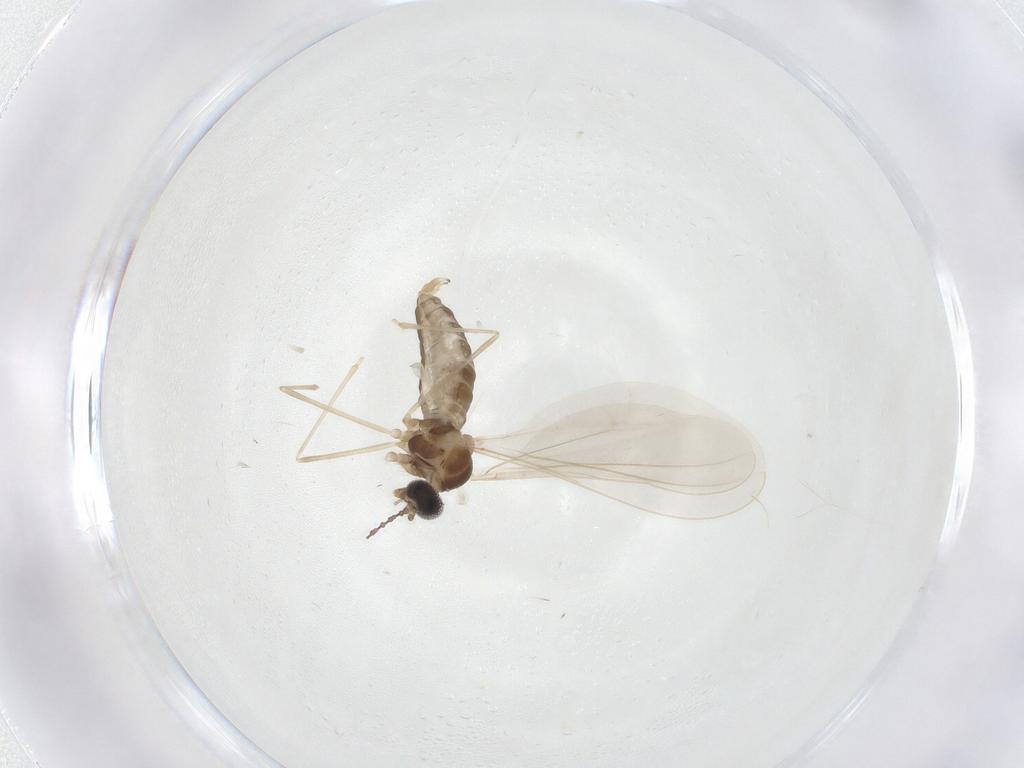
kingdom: Animalia
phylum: Arthropoda
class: Insecta
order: Diptera
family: Cecidomyiidae
